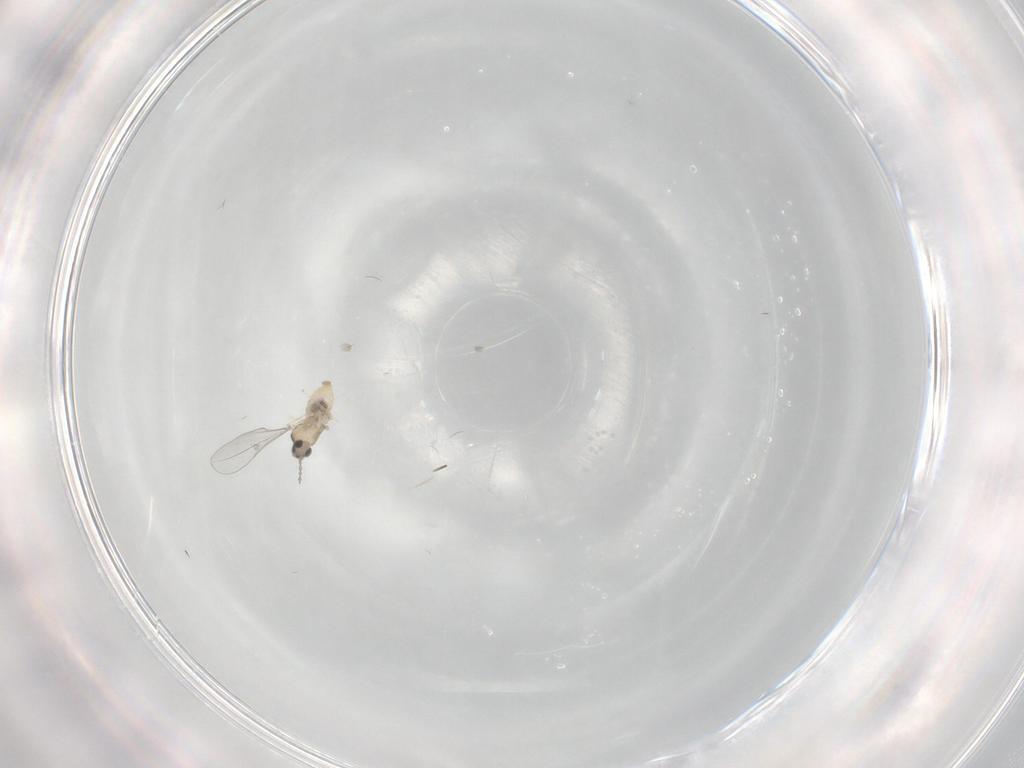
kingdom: Animalia
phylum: Arthropoda
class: Insecta
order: Diptera
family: Cecidomyiidae
